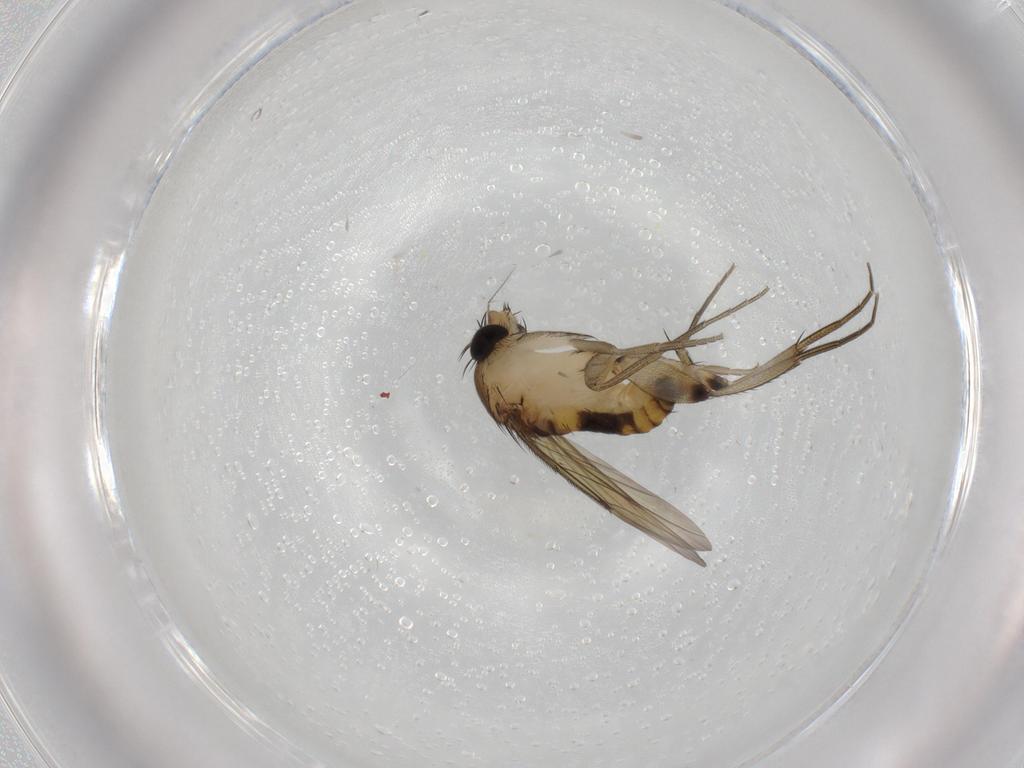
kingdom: Animalia
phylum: Arthropoda
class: Insecta
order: Diptera
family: Phoridae
